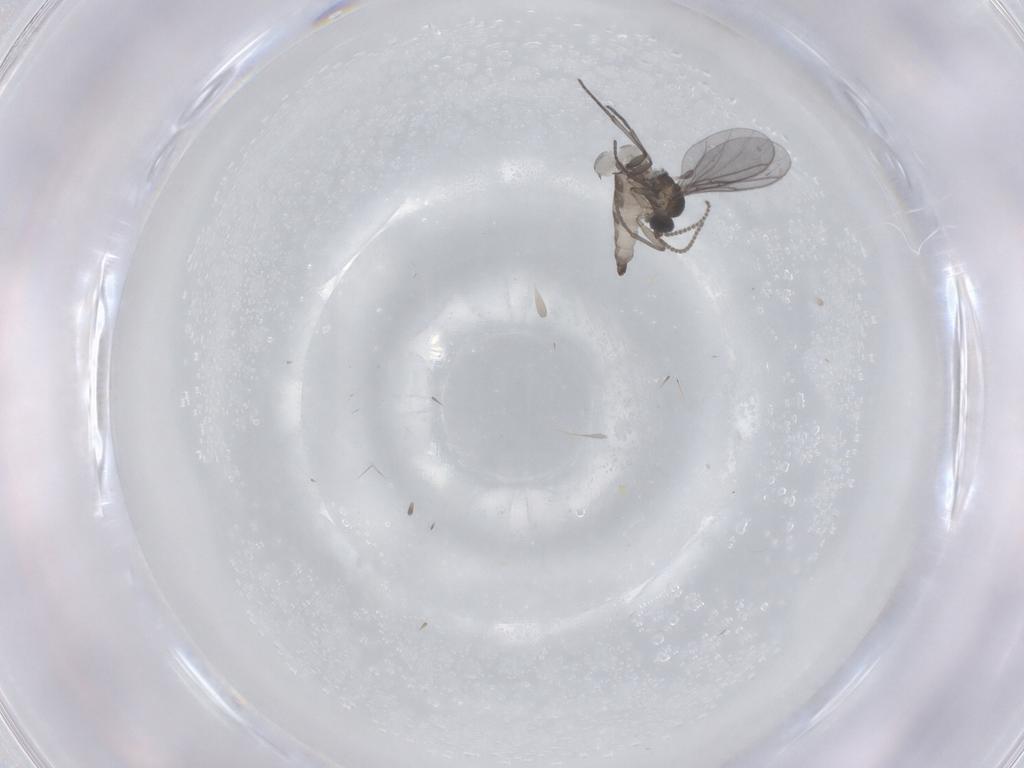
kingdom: Animalia
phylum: Arthropoda
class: Insecta
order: Diptera
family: Sciaridae
